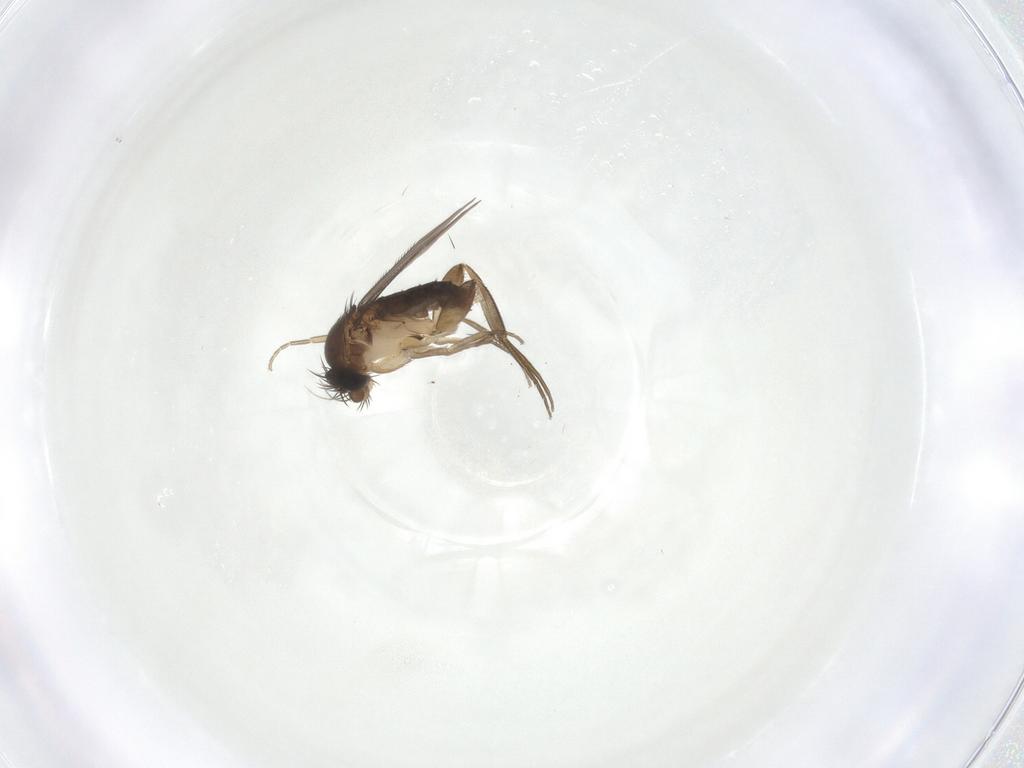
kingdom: Animalia
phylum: Arthropoda
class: Insecta
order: Diptera
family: Phoridae
